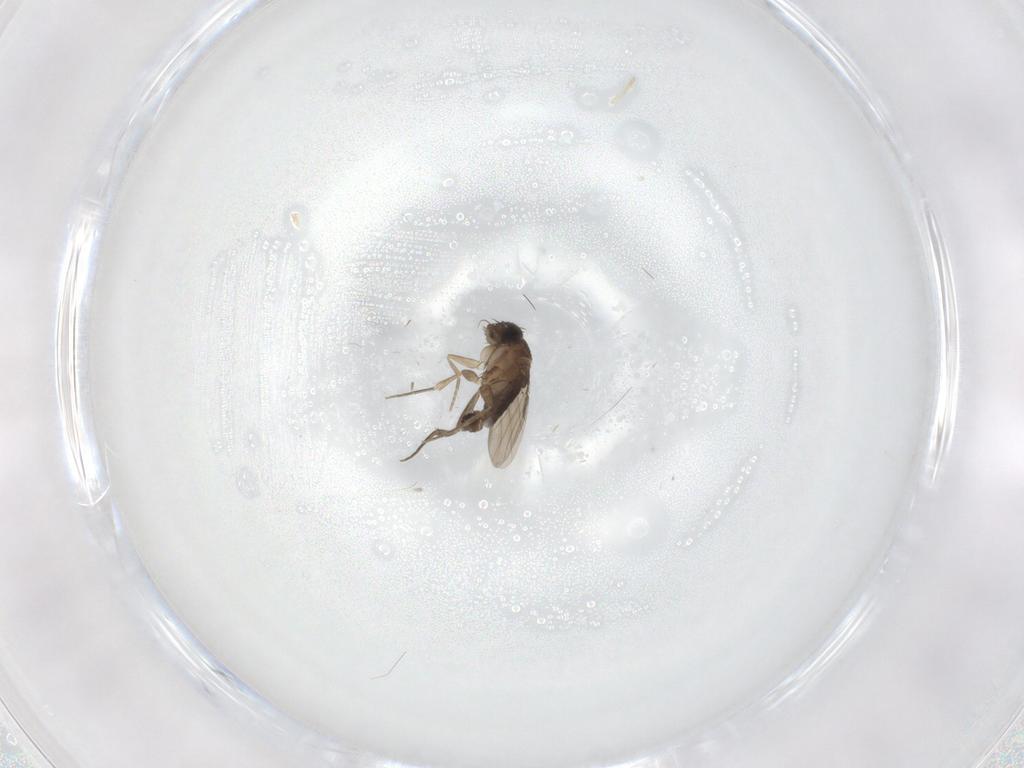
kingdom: Animalia
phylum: Arthropoda
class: Insecta
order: Diptera
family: Phoridae
